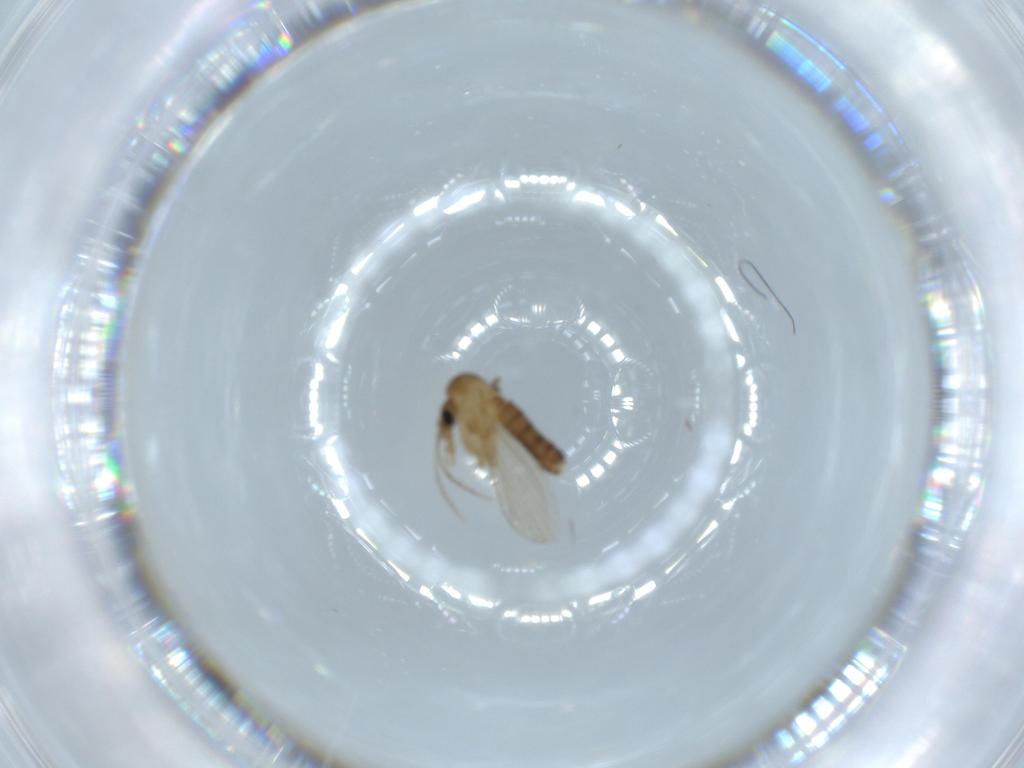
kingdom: Animalia
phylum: Arthropoda
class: Insecta
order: Diptera
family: Psychodidae
